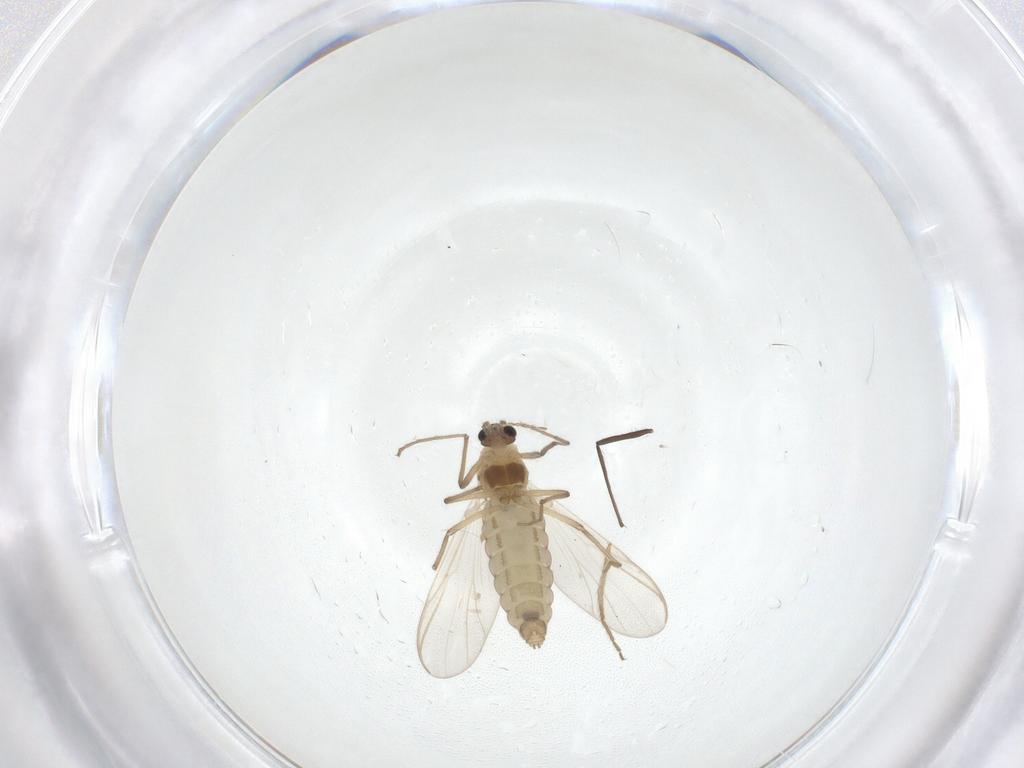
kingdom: Animalia
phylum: Arthropoda
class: Insecta
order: Diptera
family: Chironomidae
